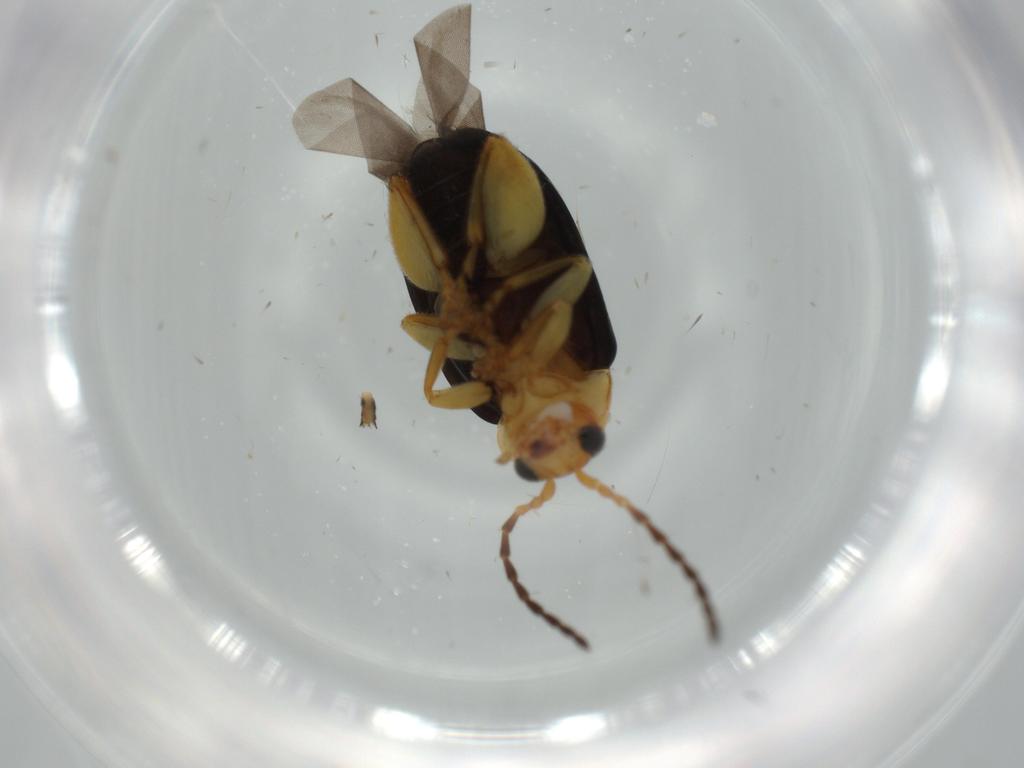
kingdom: Animalia
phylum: Arthropoda
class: Insecta
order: Coleoptera
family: Chrysomelidae
